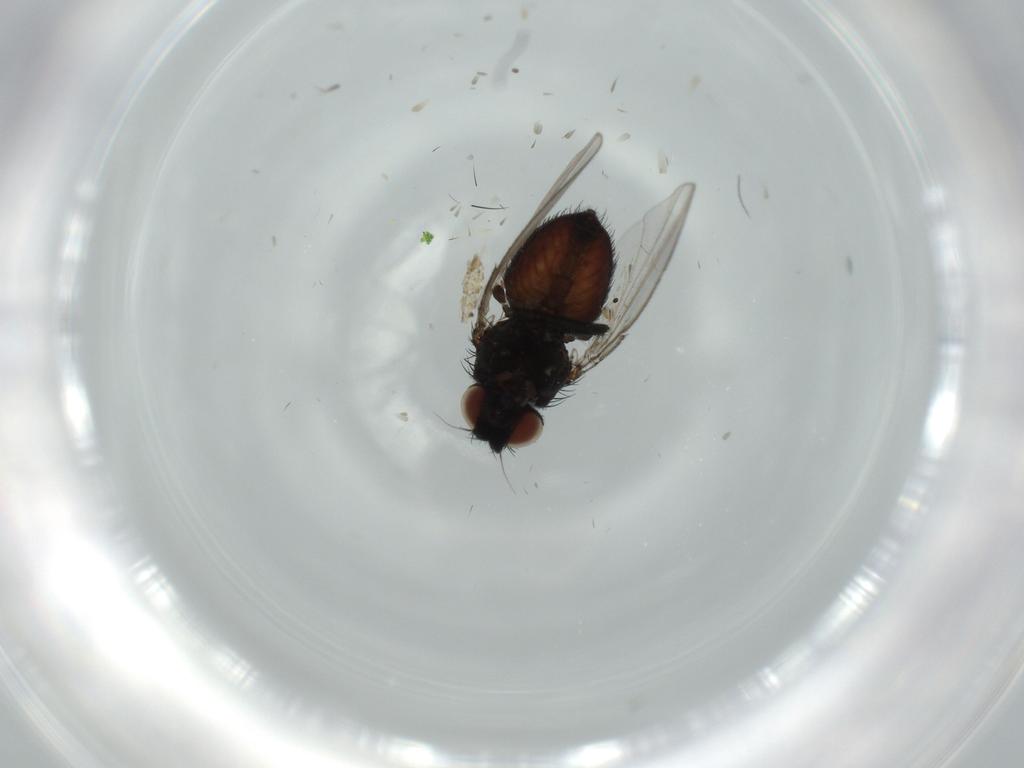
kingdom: Animalia
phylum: Arthropoda
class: Insecta
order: Diptera
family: Milichiidae
